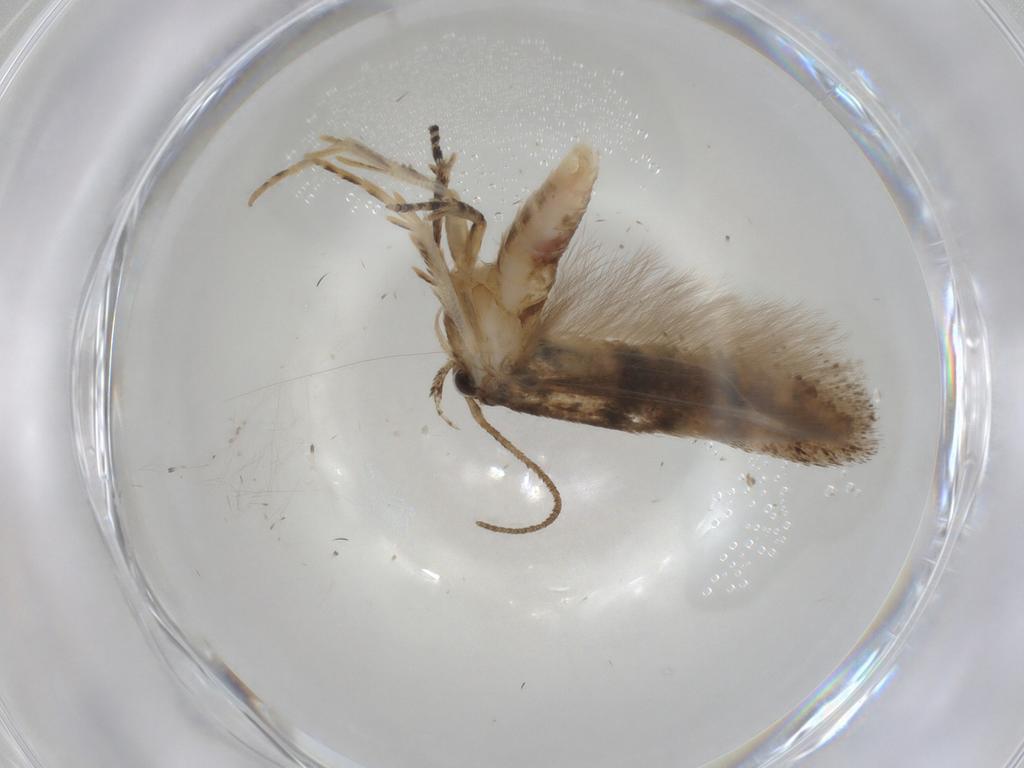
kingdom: Animalia
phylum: Arthropoda
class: Insecta
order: Lepidoptera
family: Gelechiidae
